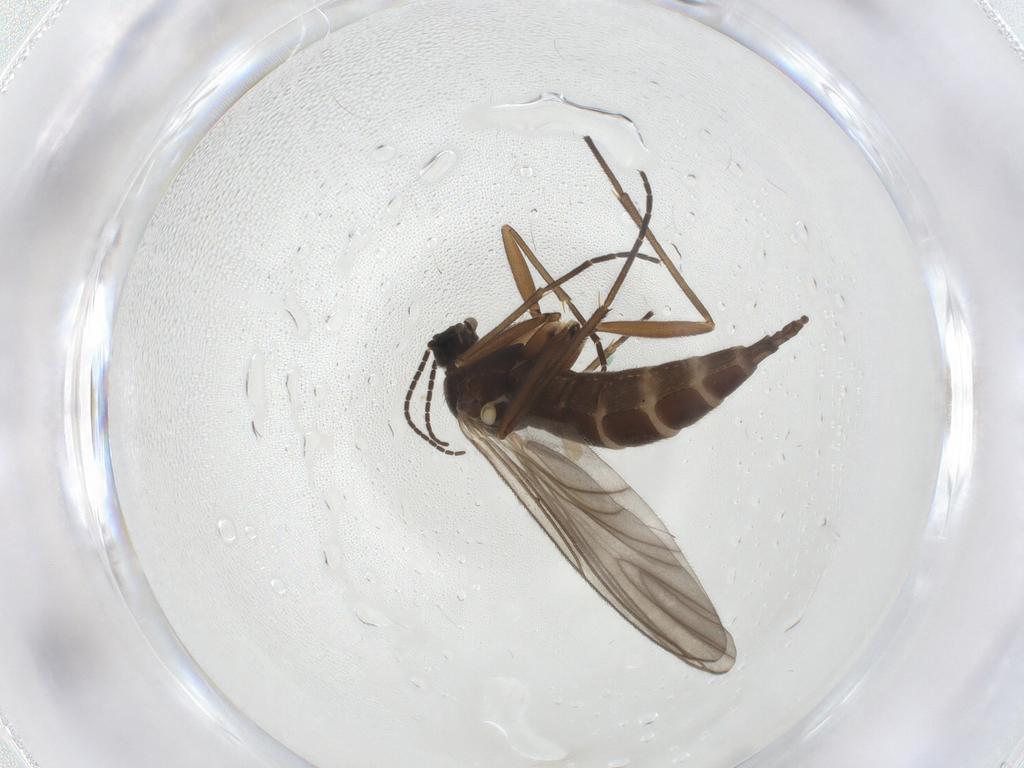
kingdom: Animalia
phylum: Arthropoda
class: Insecta
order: Diptera
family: Sciaridae
